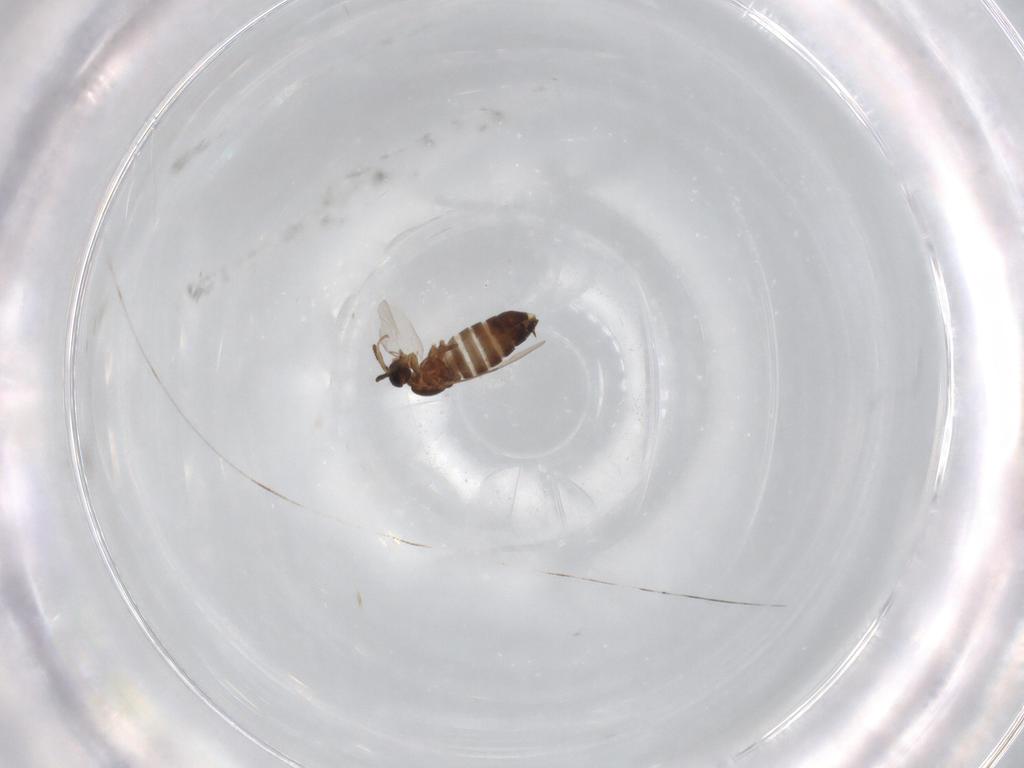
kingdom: Animalia
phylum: Arthropoda
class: Insecta
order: Diptera
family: Scatopsidae
